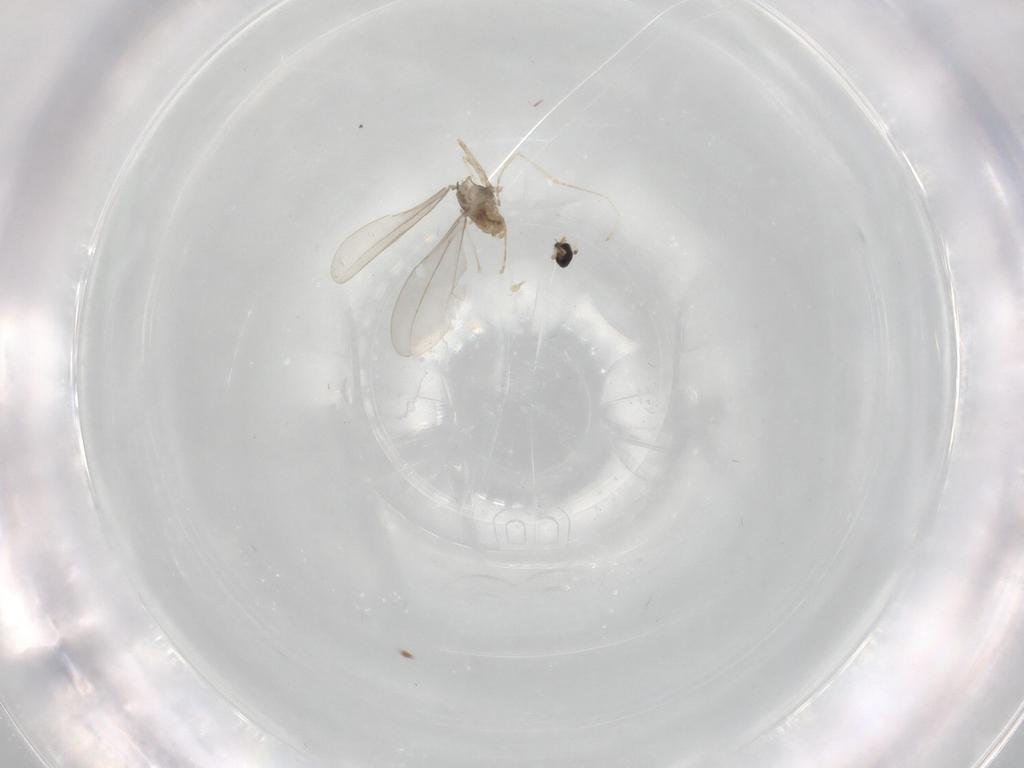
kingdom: Animalia
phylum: Arthropoda
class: Insecta
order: Diptera
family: Cecidomyiidae
